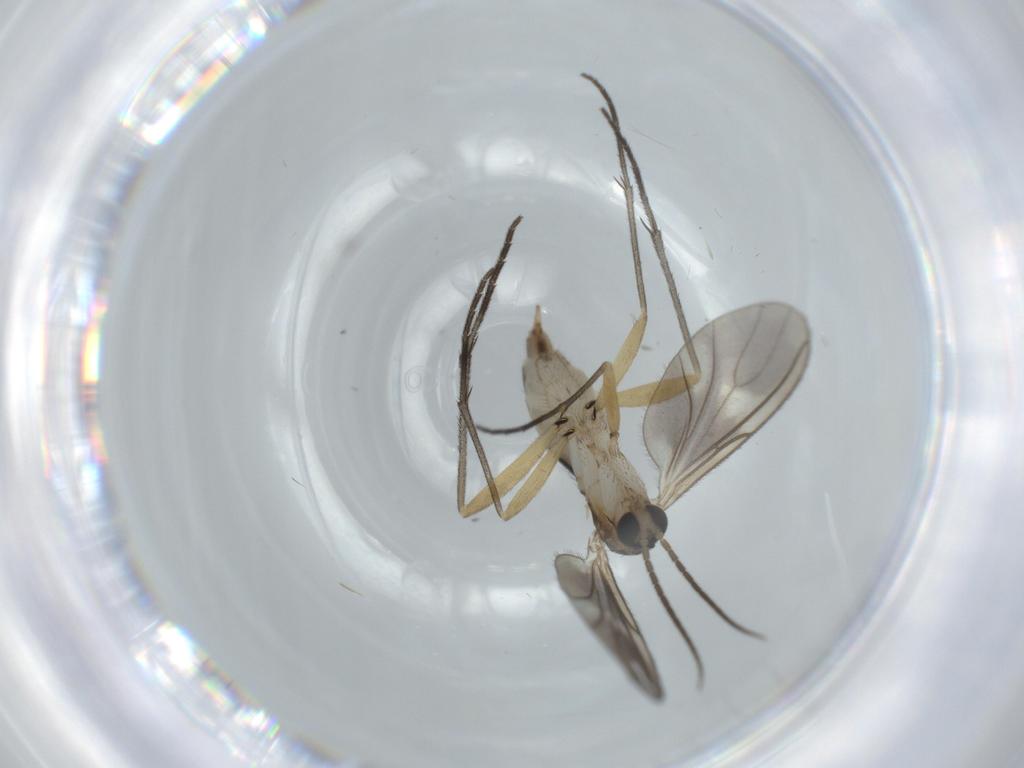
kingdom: Animalia
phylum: Arthropoda
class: Insecta
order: Diptera
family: Sciaridae
